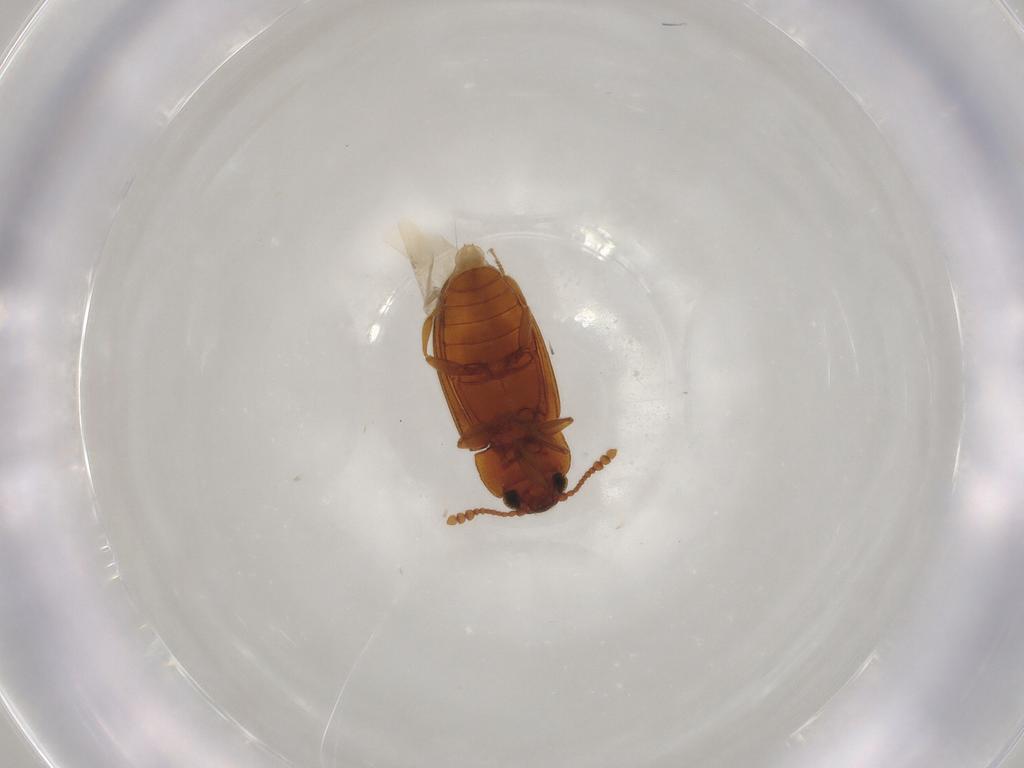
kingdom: Animalia
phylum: Arthropoda
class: Insecta
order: Coleoptera
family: Erotylidae
